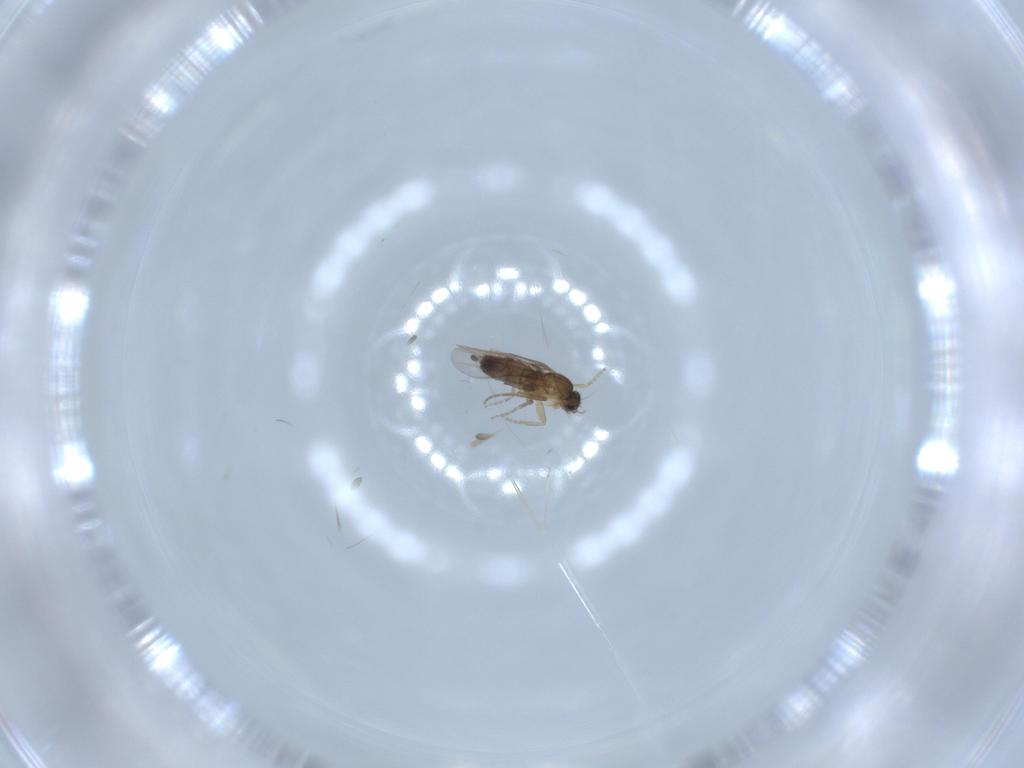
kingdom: Animalia
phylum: Arthropoda
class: Insecta
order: Diptera
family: Phoridae
